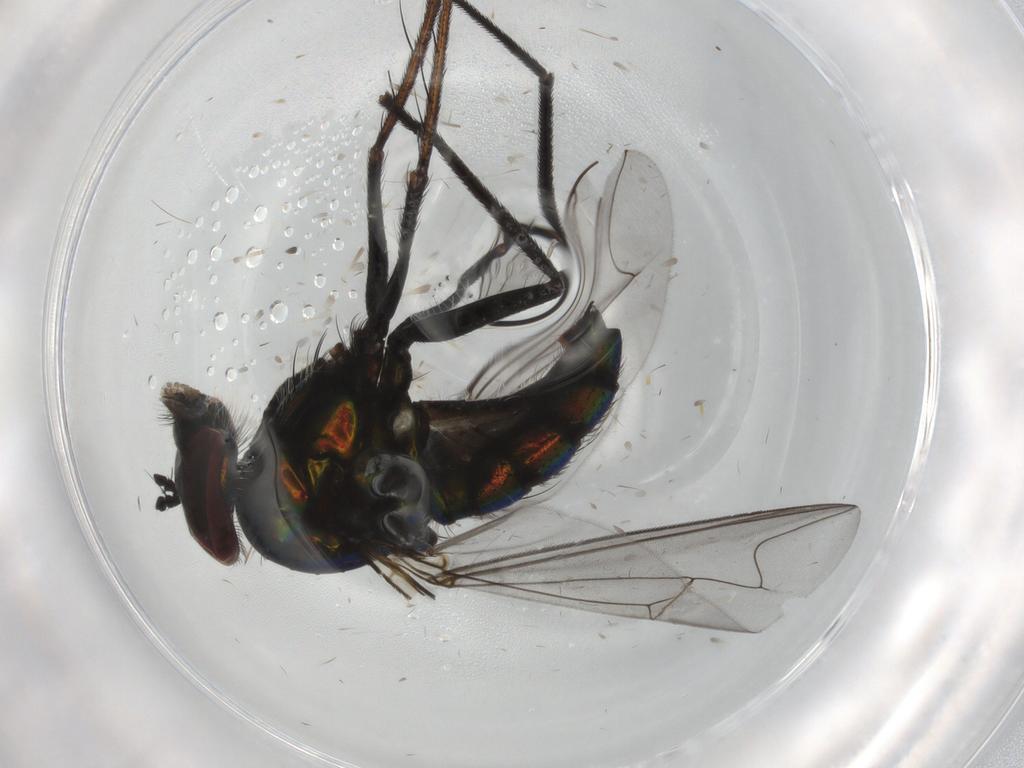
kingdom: Animalia
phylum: Arthropoda
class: Insecta
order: Diptera
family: Dolichopodidae
